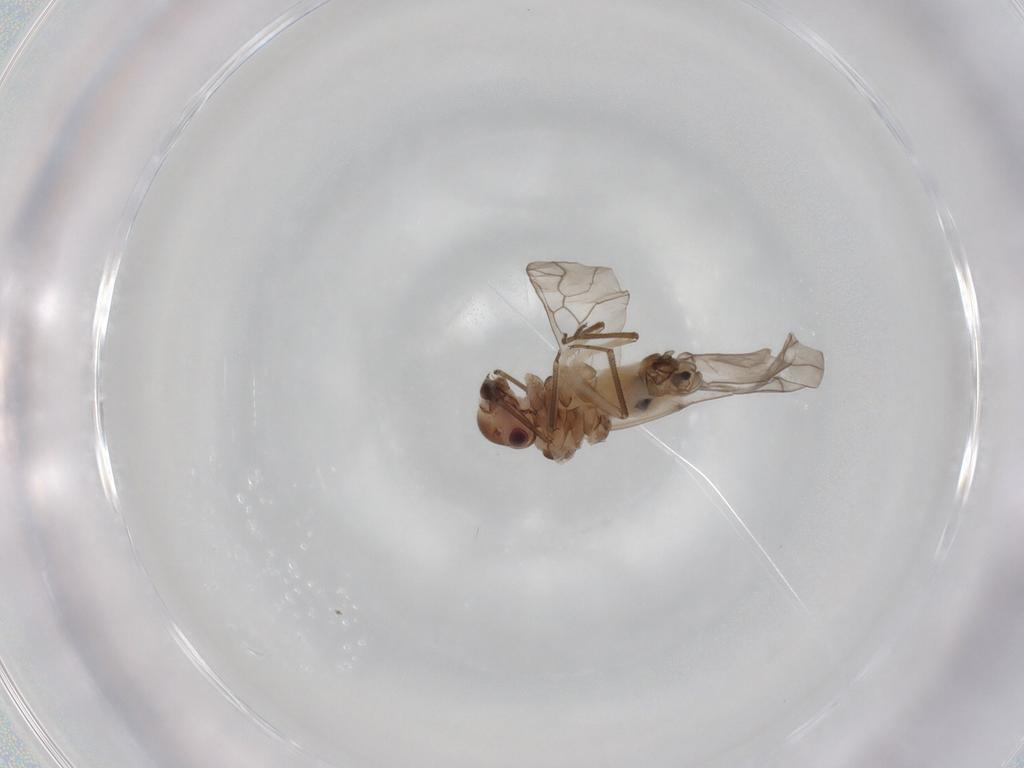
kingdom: Animalia
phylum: Arthropoda
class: Insecta
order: Psocodea
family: Peripsocidae
